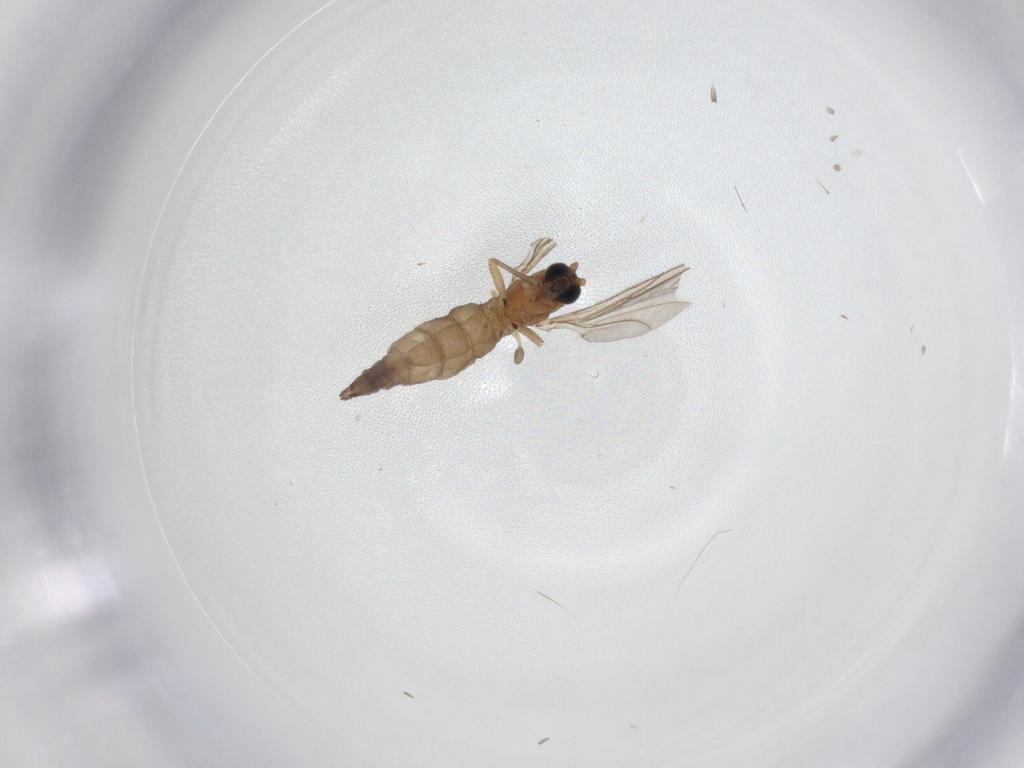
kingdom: Animalia
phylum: Arthropoda
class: Insecta
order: Diptera
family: Sciaridae
